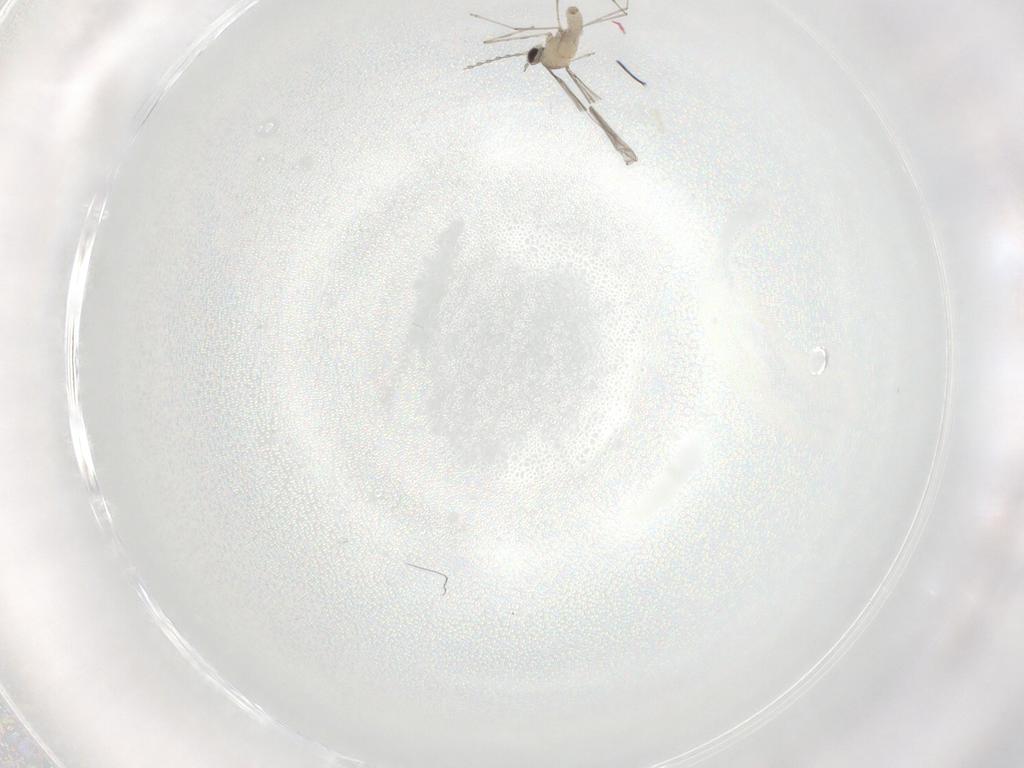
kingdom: Animalia
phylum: Arthropoda
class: Insecta
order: Diptera
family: Cecidomyiidae
